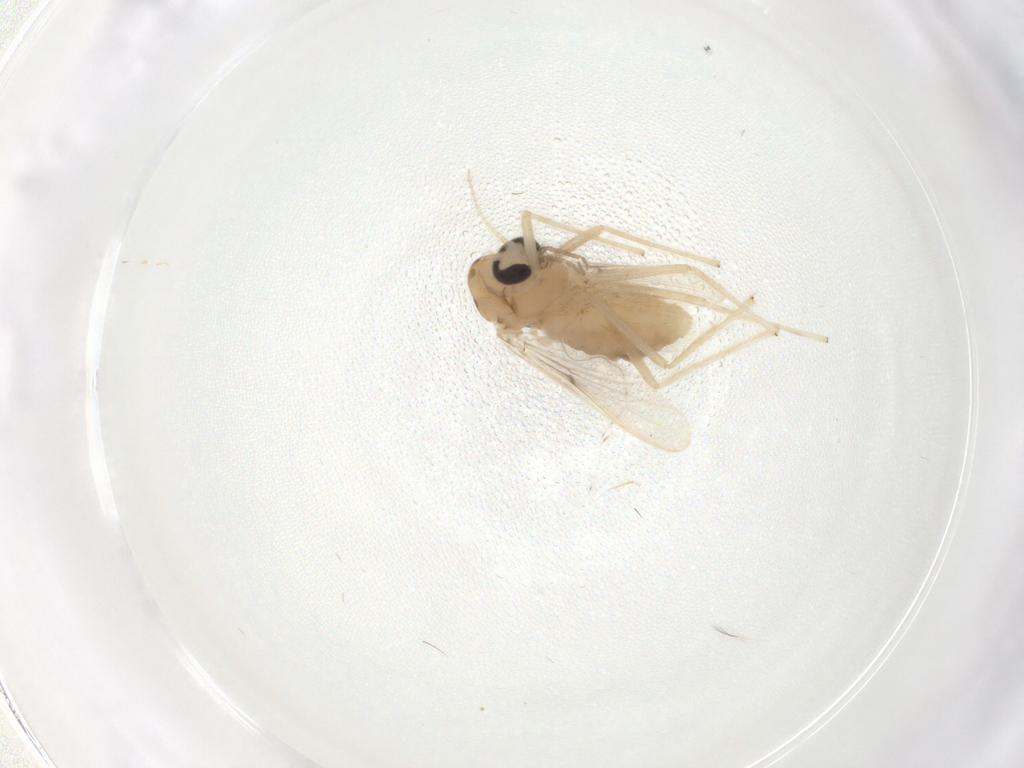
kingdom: Animalia
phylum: Arthropoda
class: Insecta
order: Diptera
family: Chironomidae
